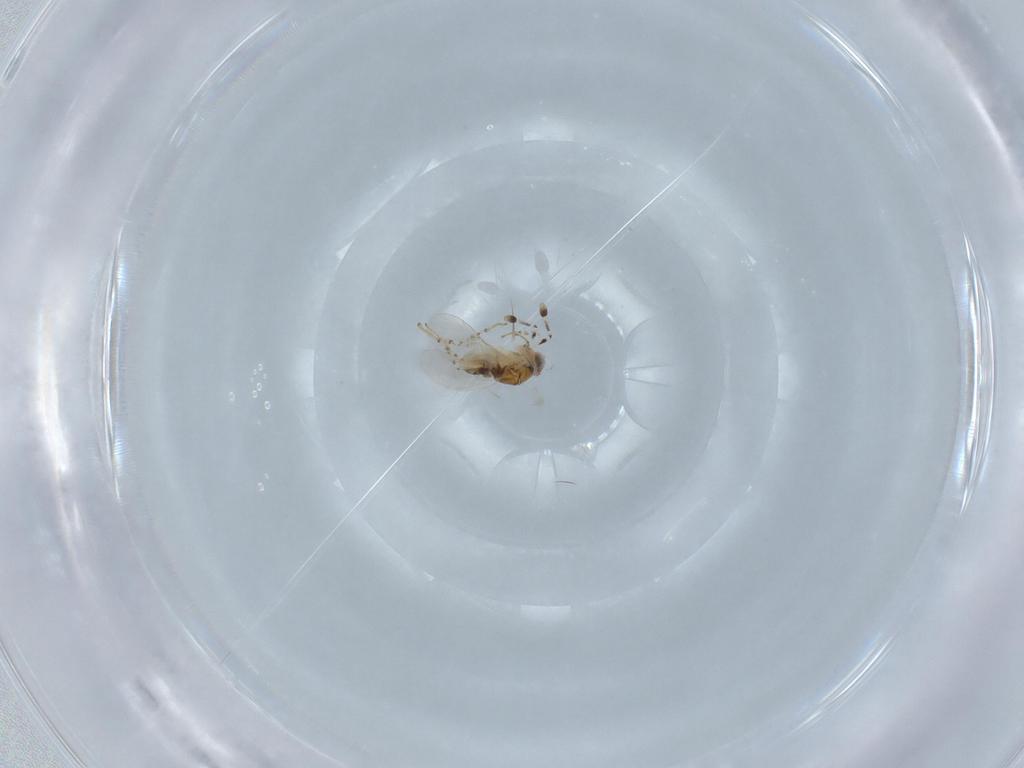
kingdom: Animalia
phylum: Arthropoda
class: Insecta
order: Hymenoptera
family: Encyrtidae
